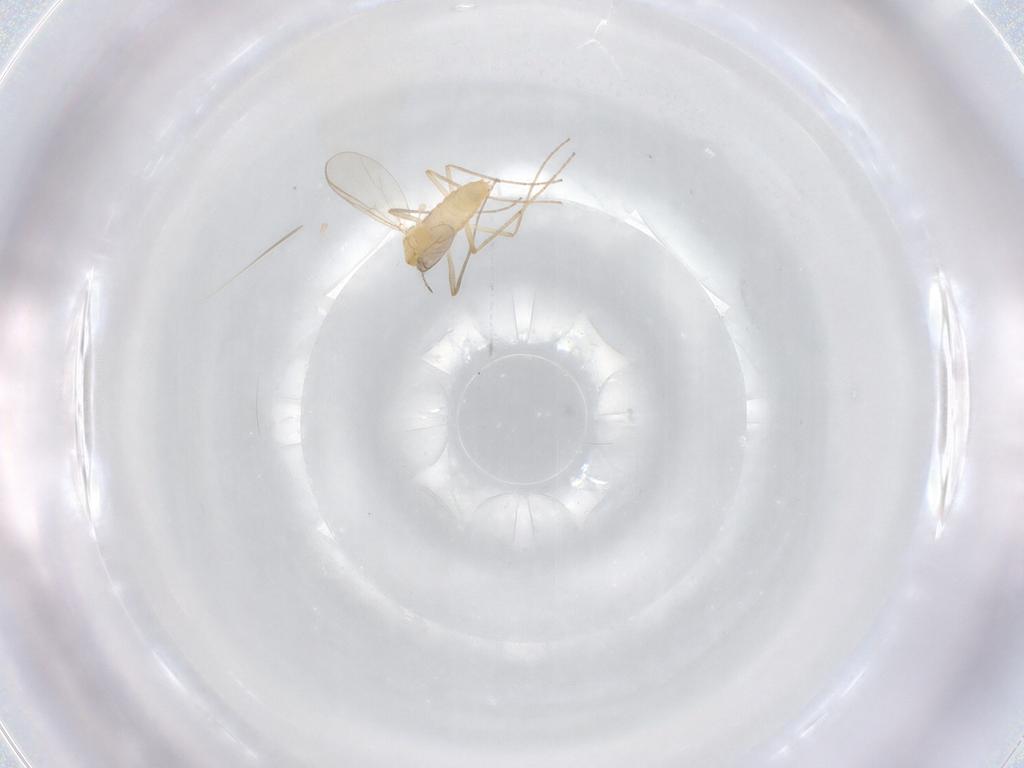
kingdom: Animalia
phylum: Arthropoda
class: Insecta
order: Diptera
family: Chironomidae
